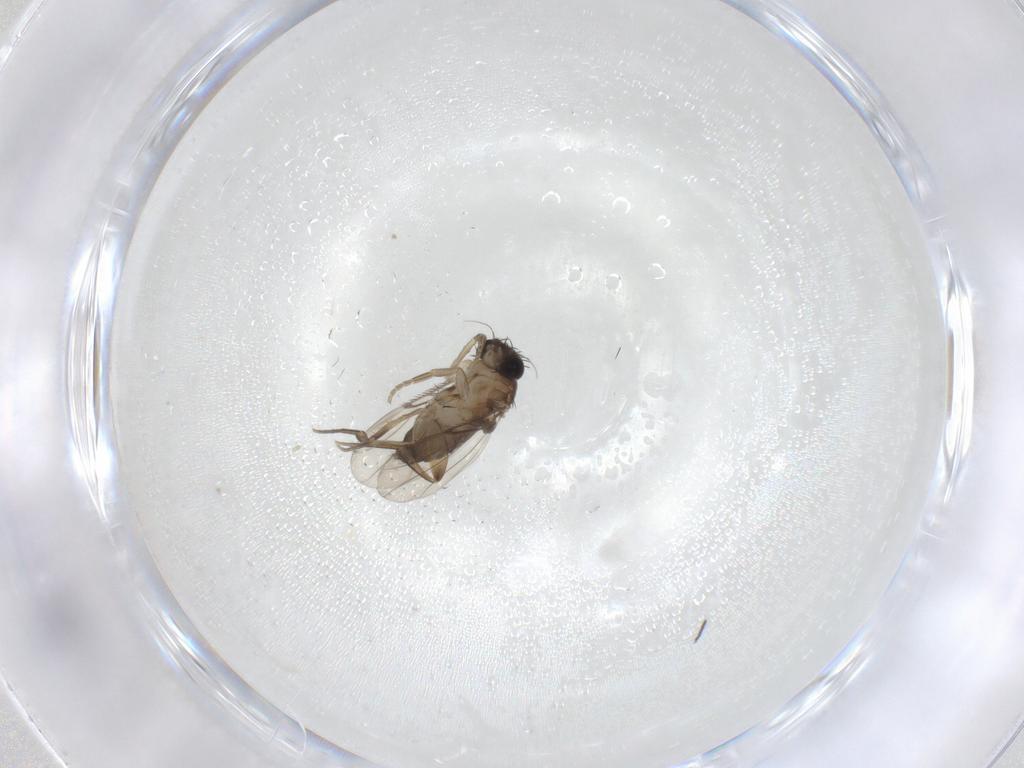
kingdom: Animalia
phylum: Arthropoda
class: Insecta
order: Diptera
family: Phoridae
